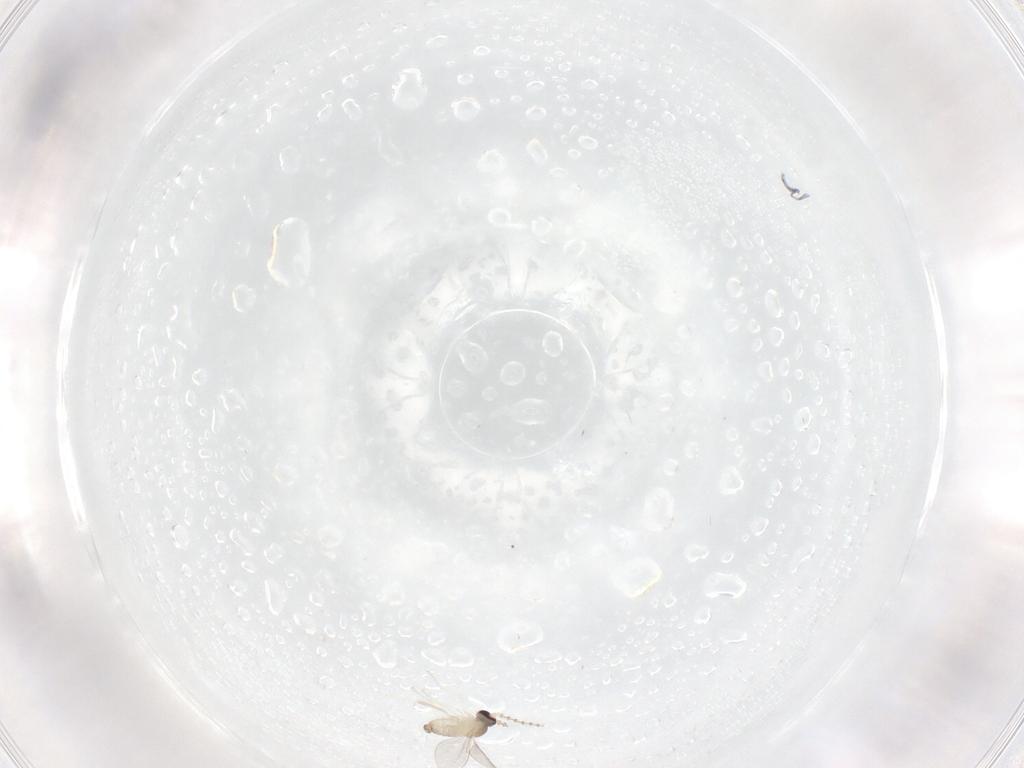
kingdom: Animalia
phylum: Arthropoda
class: Insecta
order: Diptera
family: Cecidomyiidae
